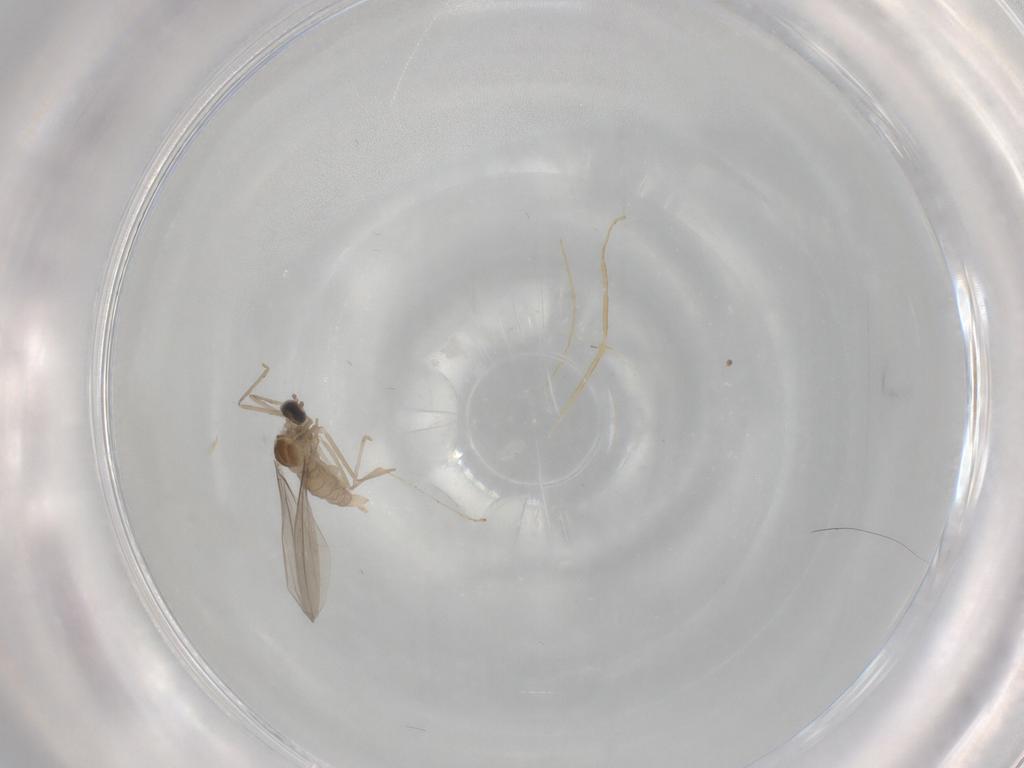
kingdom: Animalia
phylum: Arthropoda
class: Insecta
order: Diptera
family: Cecidomyiidae
